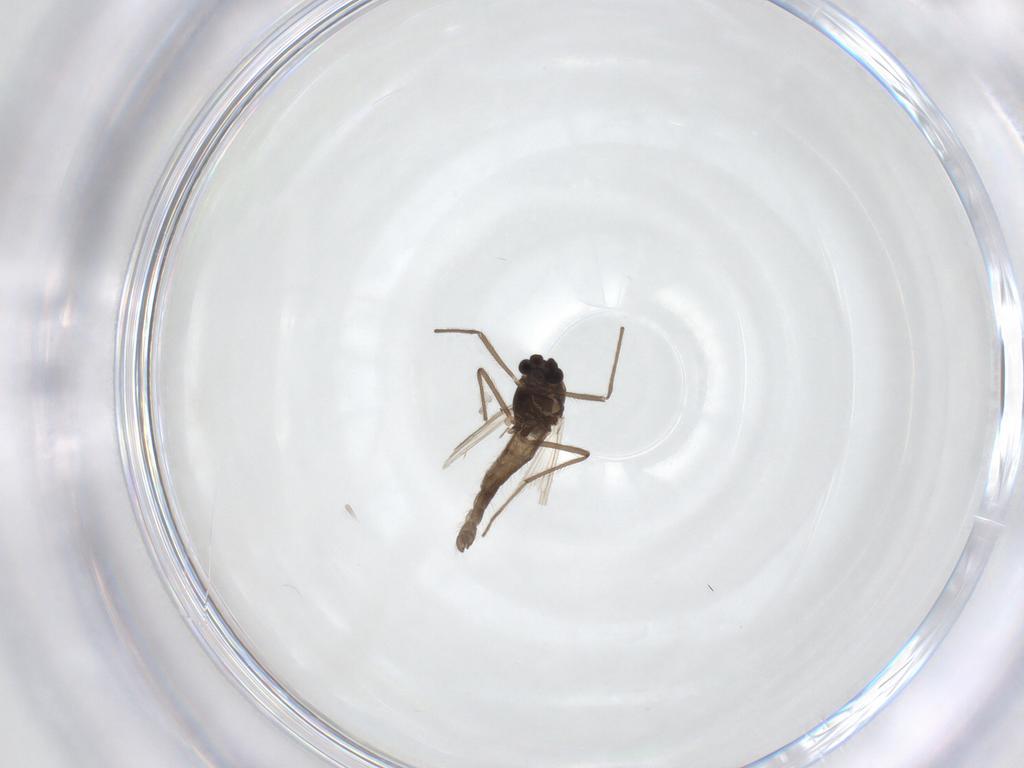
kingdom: Animalia
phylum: Arthropoda
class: Insecta
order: Diptera
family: Chironomidae
